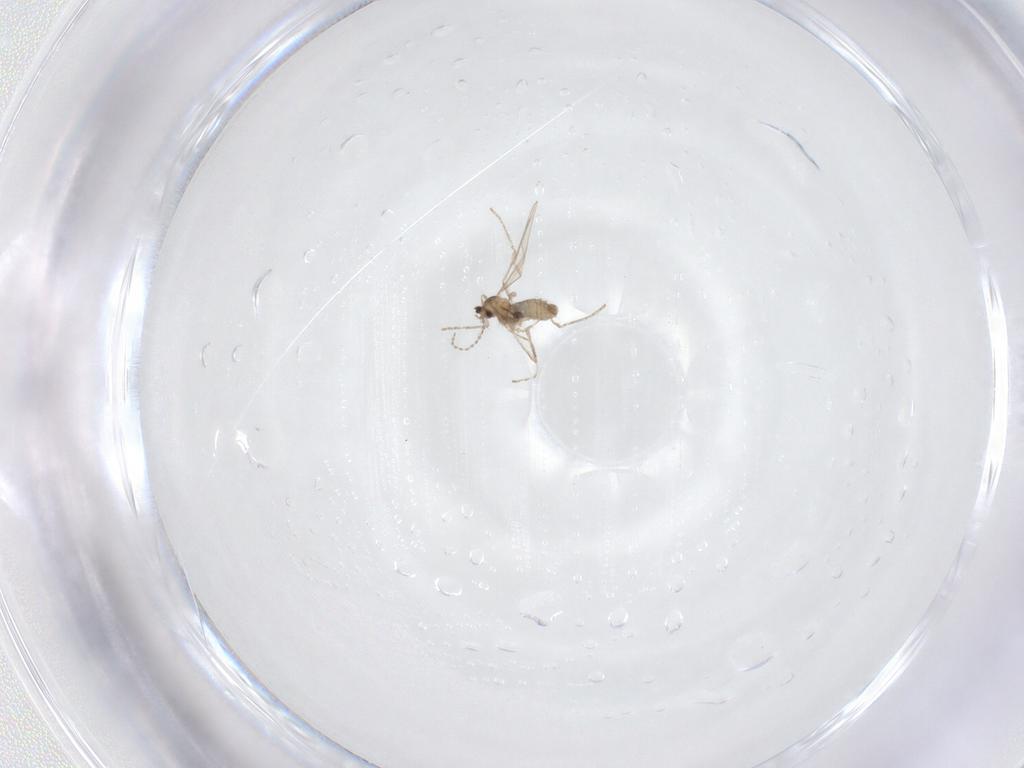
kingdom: Animalia
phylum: Arthropoda
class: Insecta
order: Diptera
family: Cecidomyiidae
